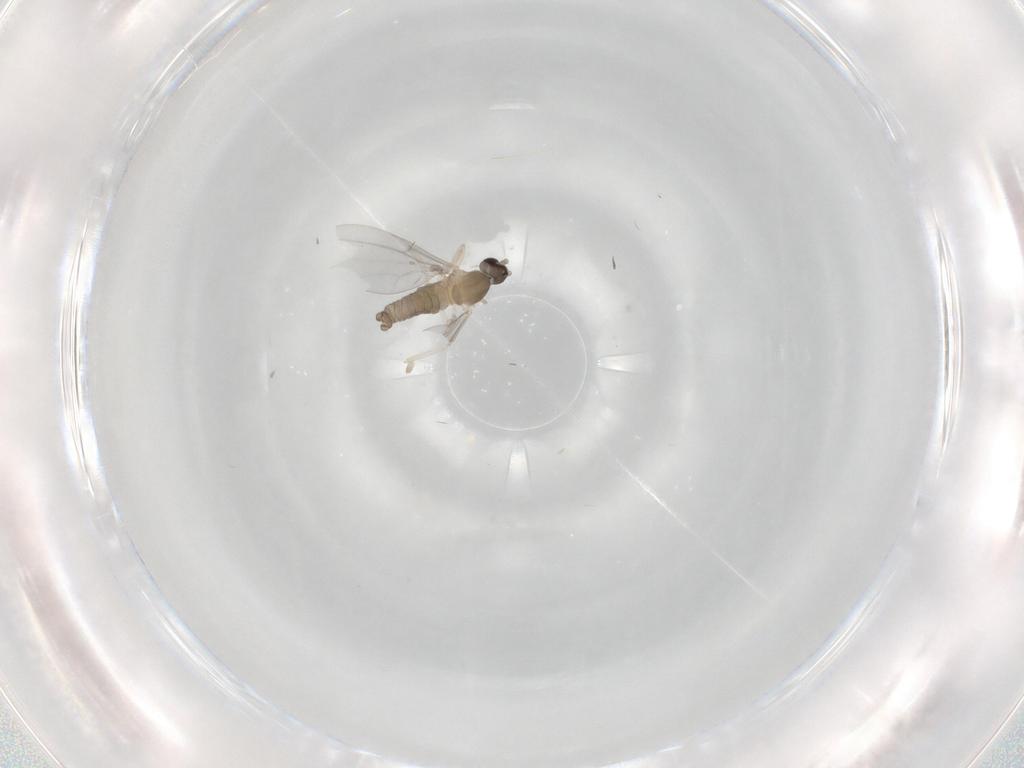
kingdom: Animalia
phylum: Arthropoda
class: Insecta
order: Diptera
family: Cecidomyiidae
